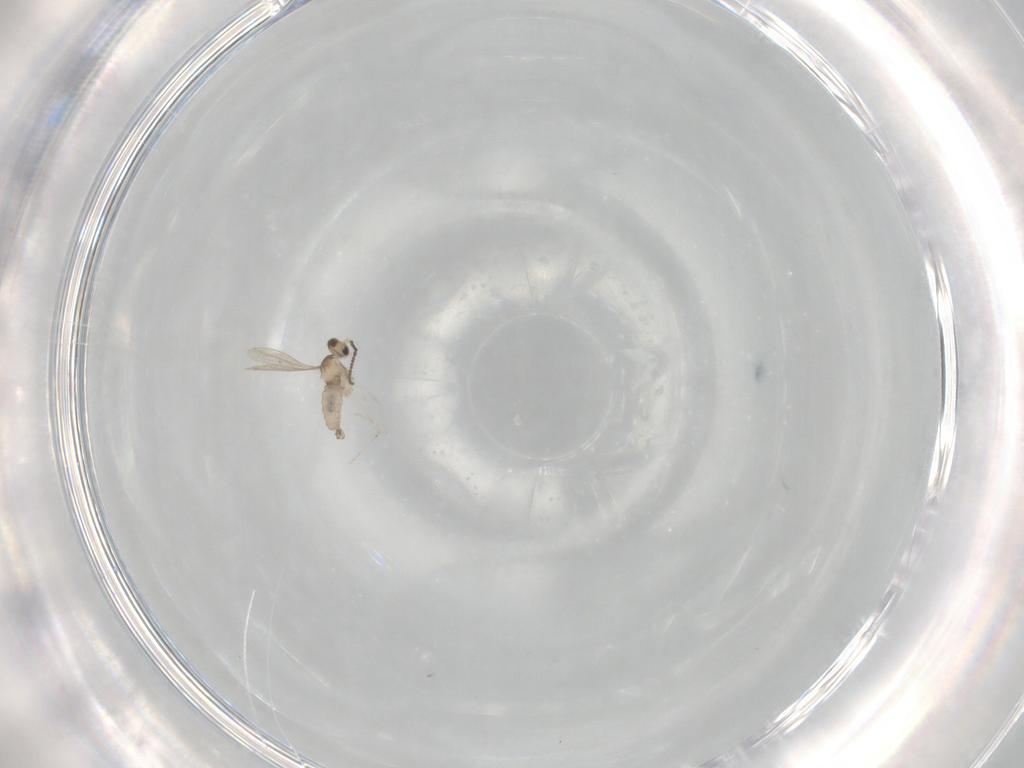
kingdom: Animalia
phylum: Arthropoda
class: Insecta
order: Diptera
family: Cecidomyiidae
